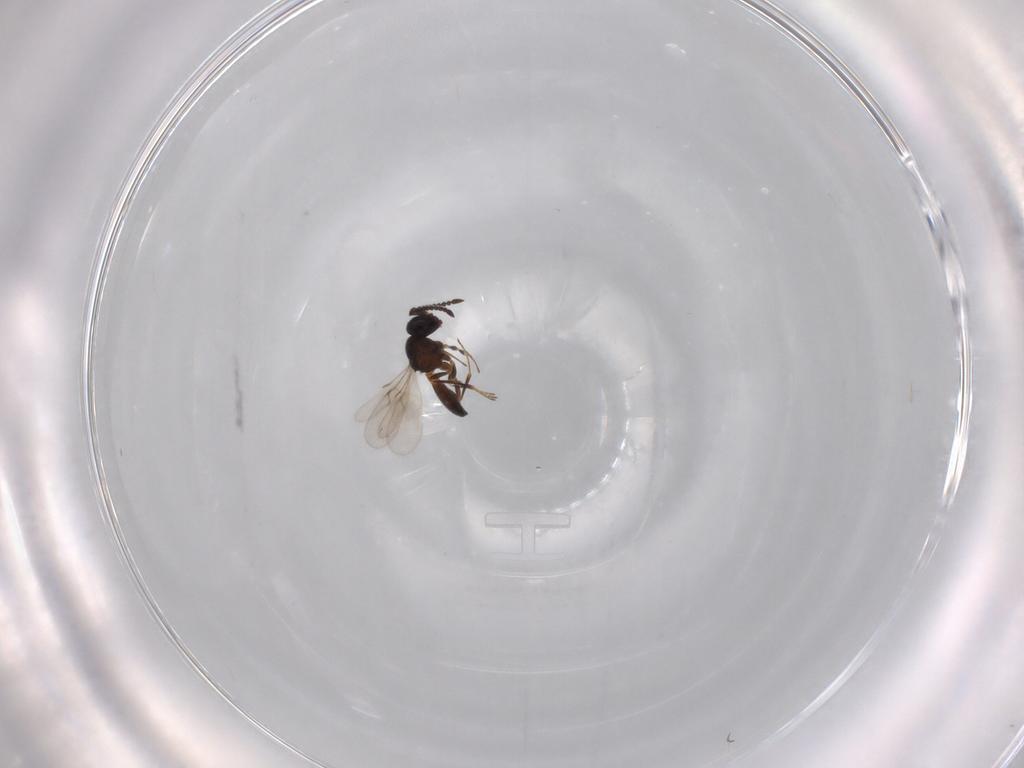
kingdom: Animalia
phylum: Arthropoda
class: Insecta
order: Hymenoptera
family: Scelionidae
